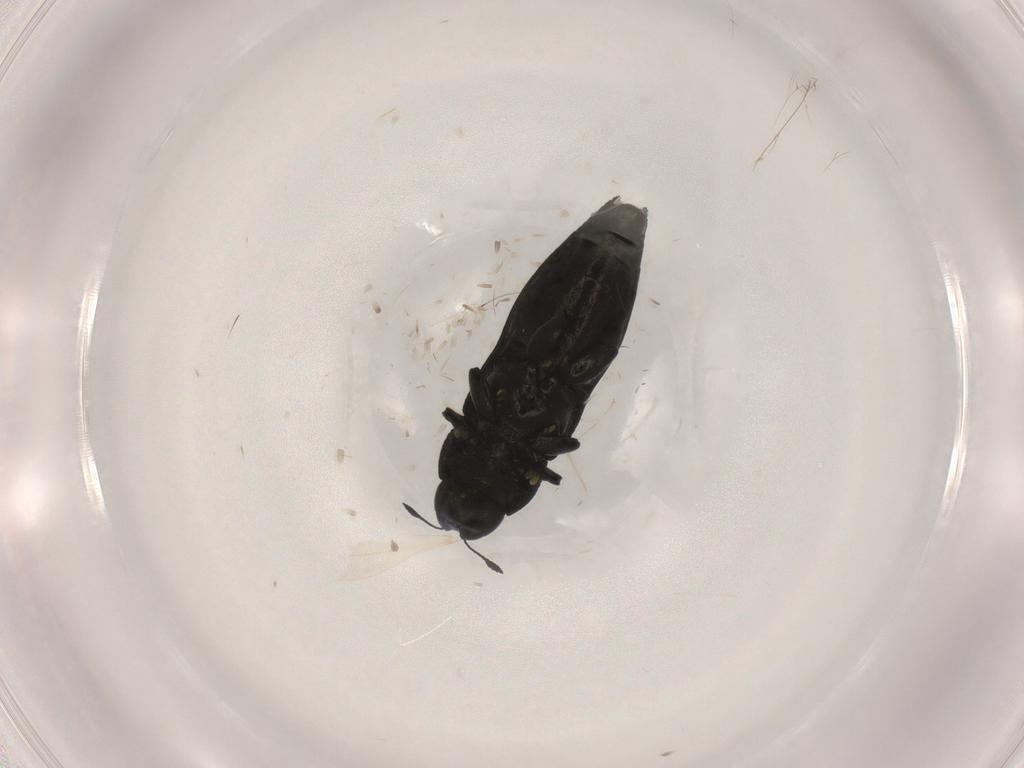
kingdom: Animalia
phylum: Arthropoda
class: Insecta
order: Coleoptera
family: Buprestidae
